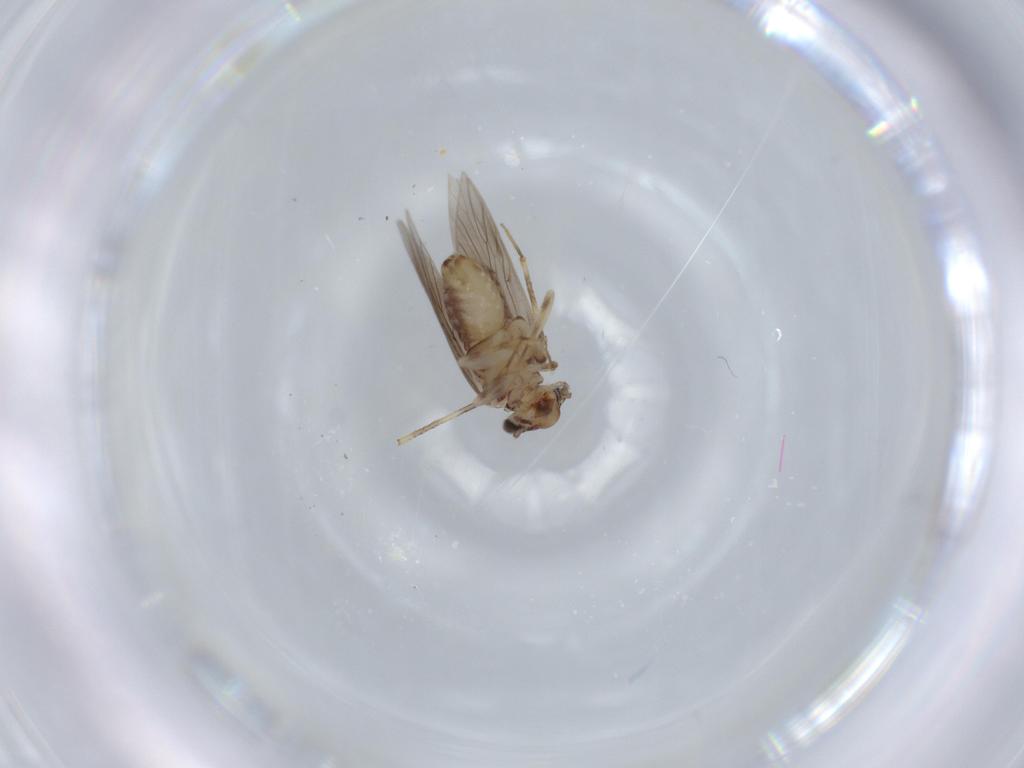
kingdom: Animalia
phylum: Arthropoda
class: Insecta
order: Psocodea
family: Lepidopsocidae
